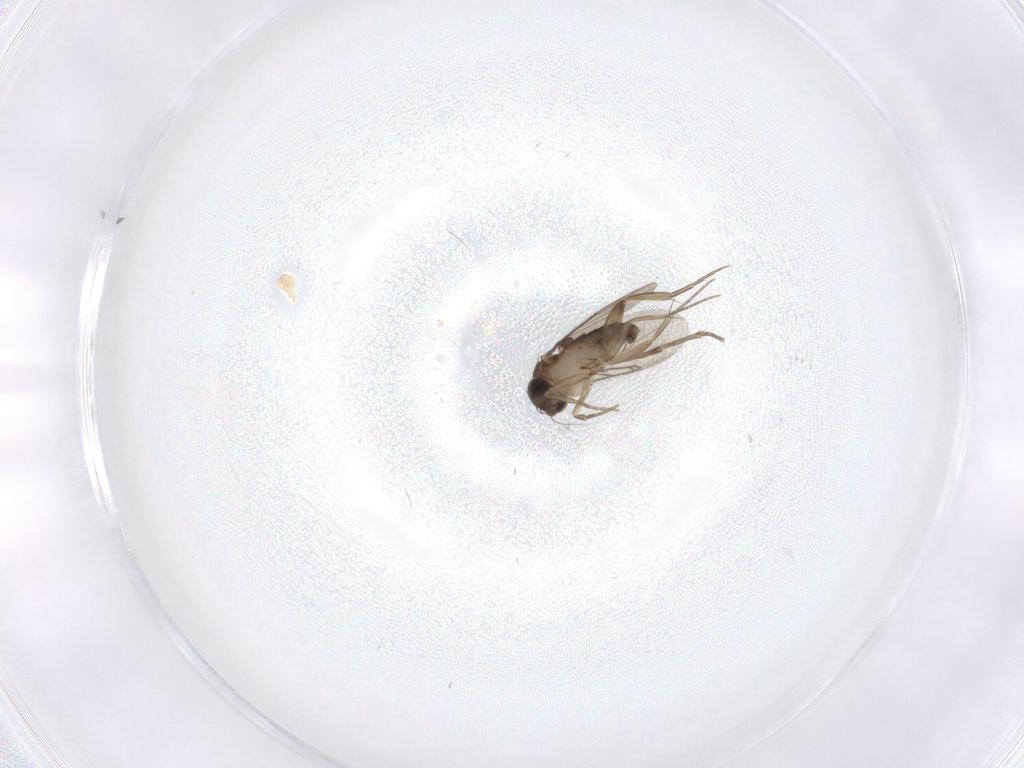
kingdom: Animalia
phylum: Arthropoda
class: Insecta
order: Diptera
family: Phoridae
